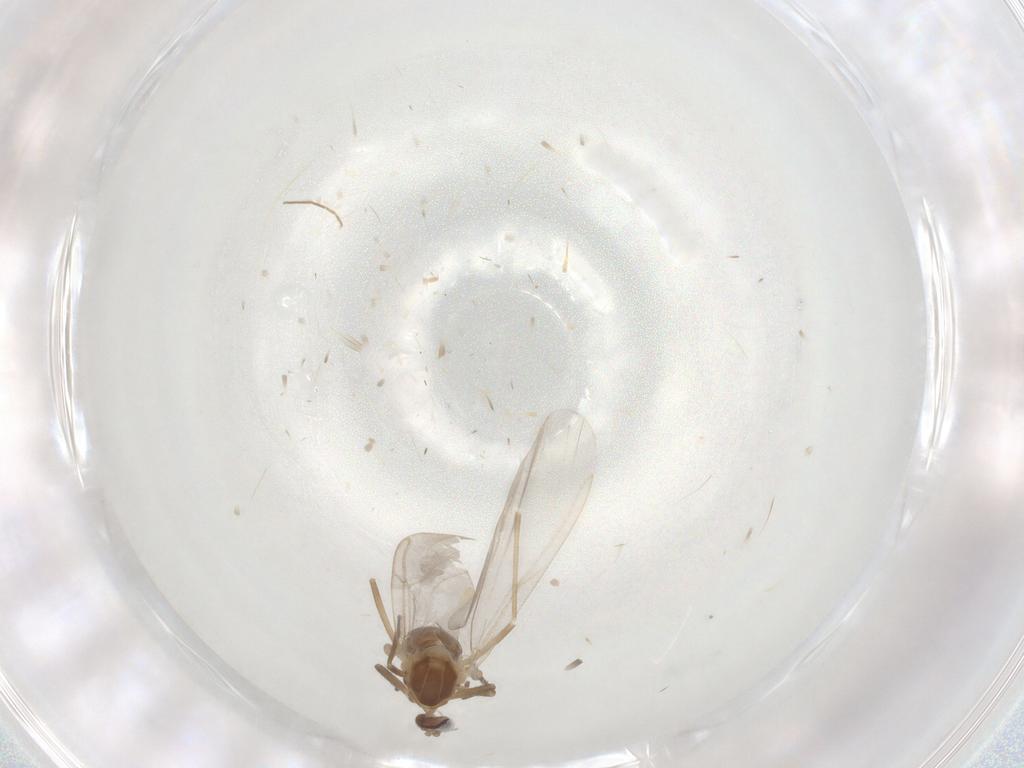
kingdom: Animalia
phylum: Arthropoda
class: Insecta
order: Diptera
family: Cecidomyiidae
